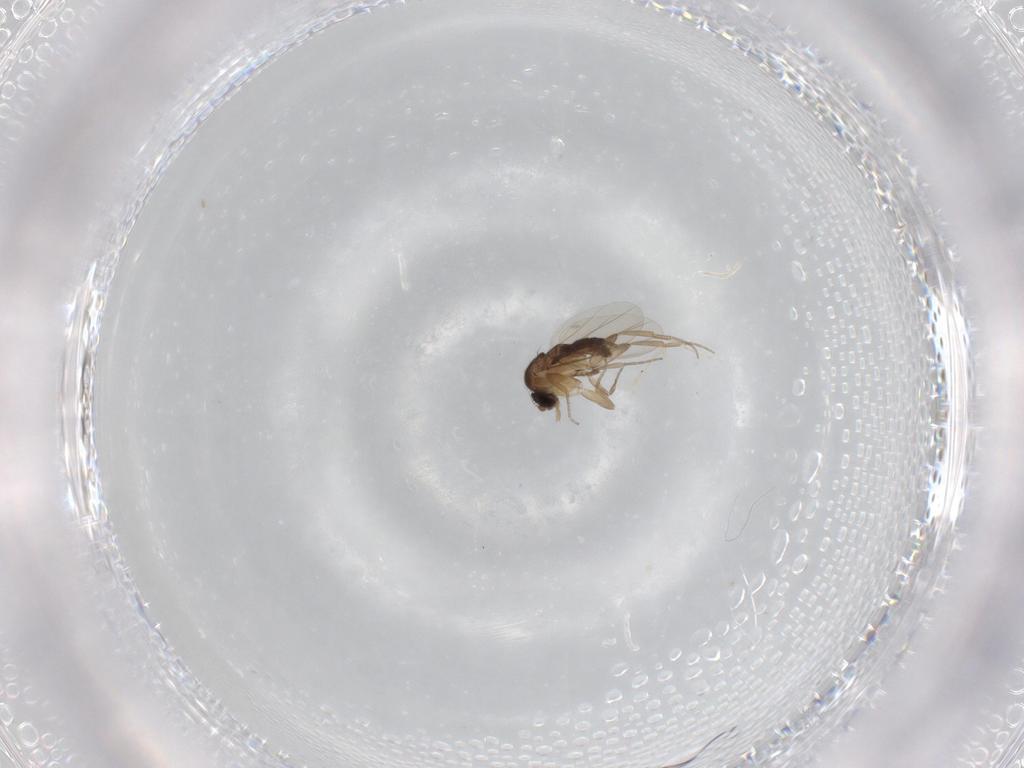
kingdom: Animalia
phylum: Arthropoda
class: Insecta
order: Diptera
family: Phoridae
